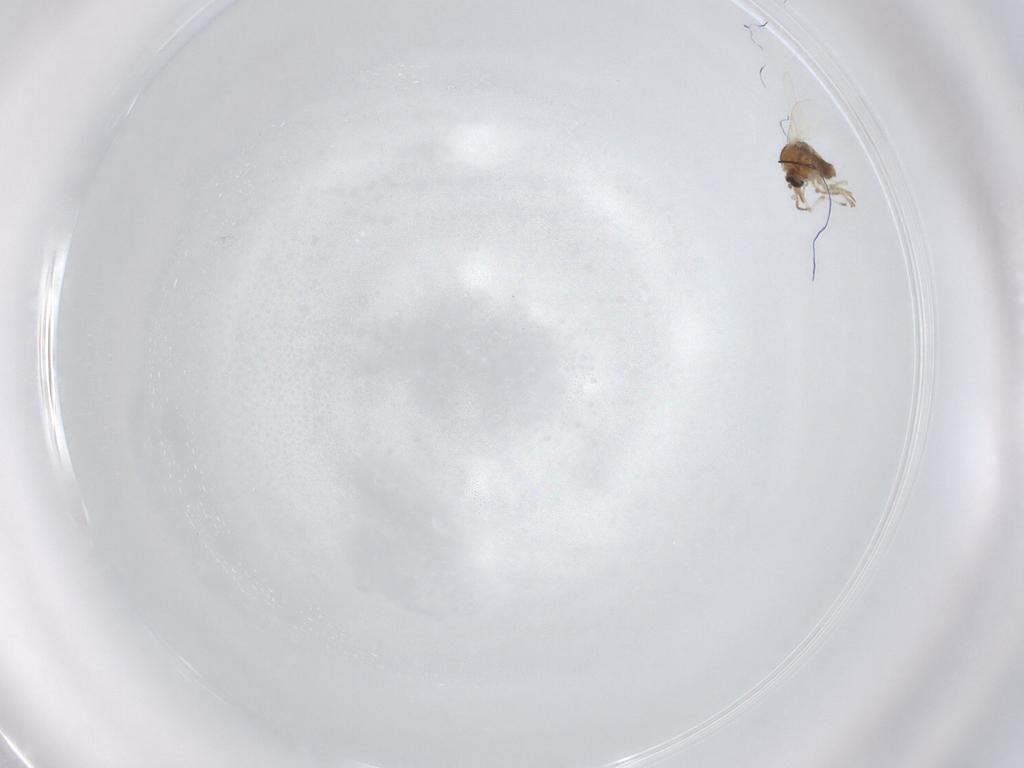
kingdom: Animalia
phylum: Arthropoda
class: Insecta
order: Diptera
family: Ceratopogonidae
